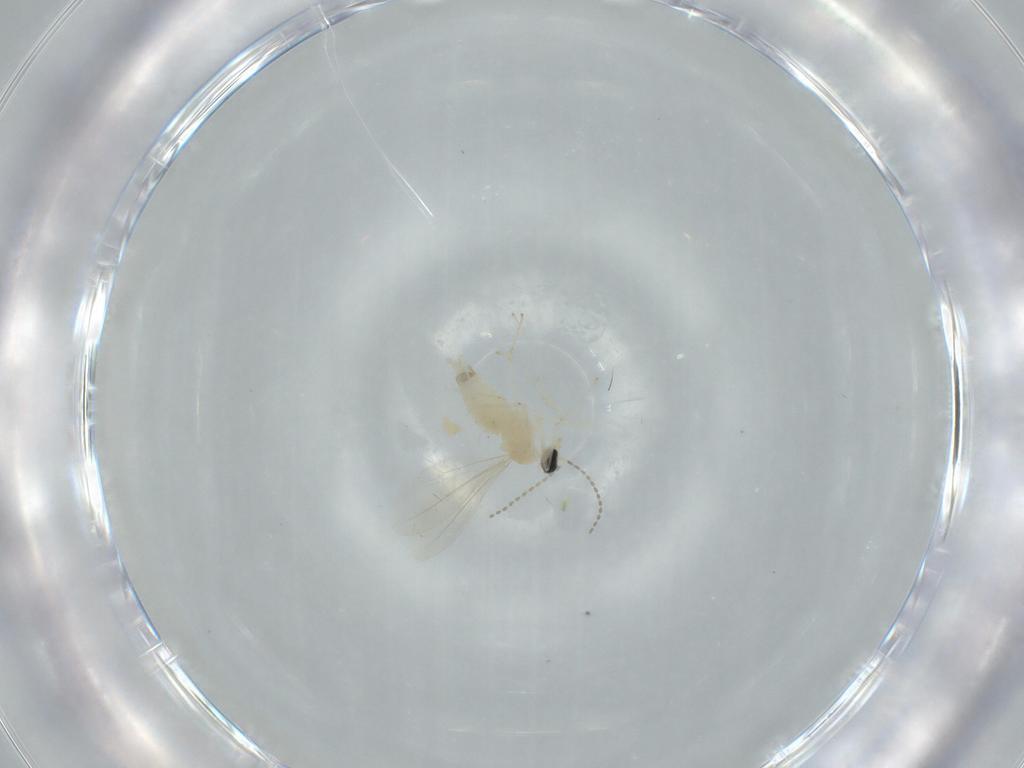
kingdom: Animalia
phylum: Arthropoda
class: Insecta
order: Diptera
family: Cecidomyiidae
